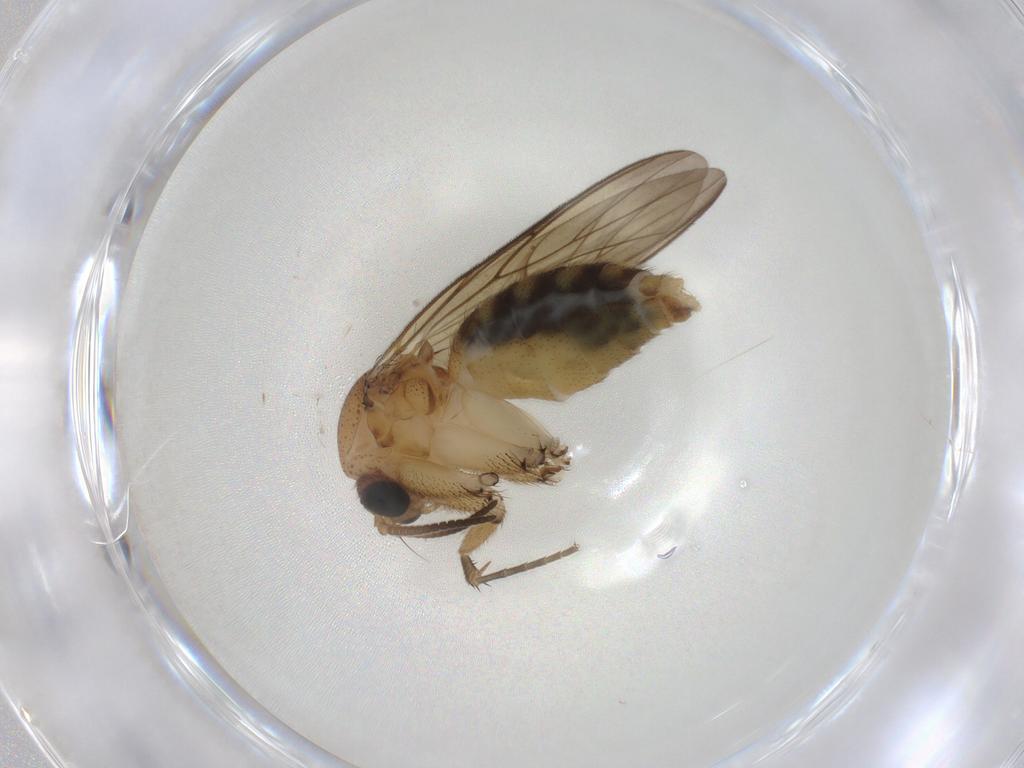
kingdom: Animalia
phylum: Arthropoda
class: Insecta
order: Diptera
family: Chironomidae
